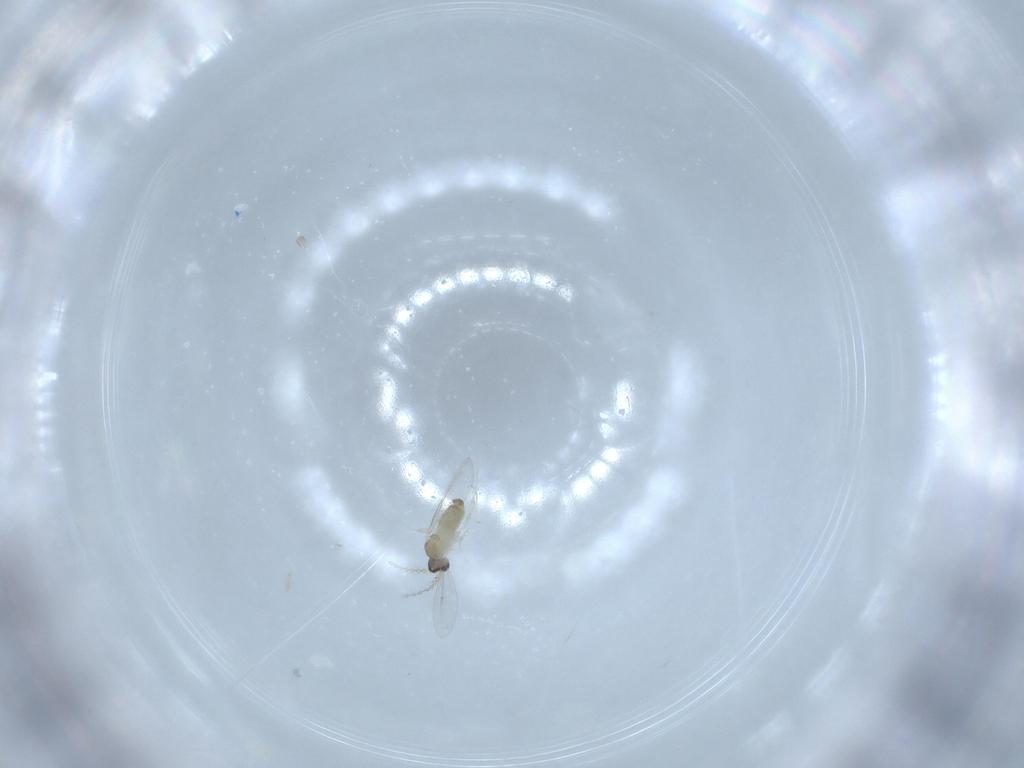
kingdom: Animalia
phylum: Arthropoda
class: Insecta
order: Diptera
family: Cecidomyiidae
